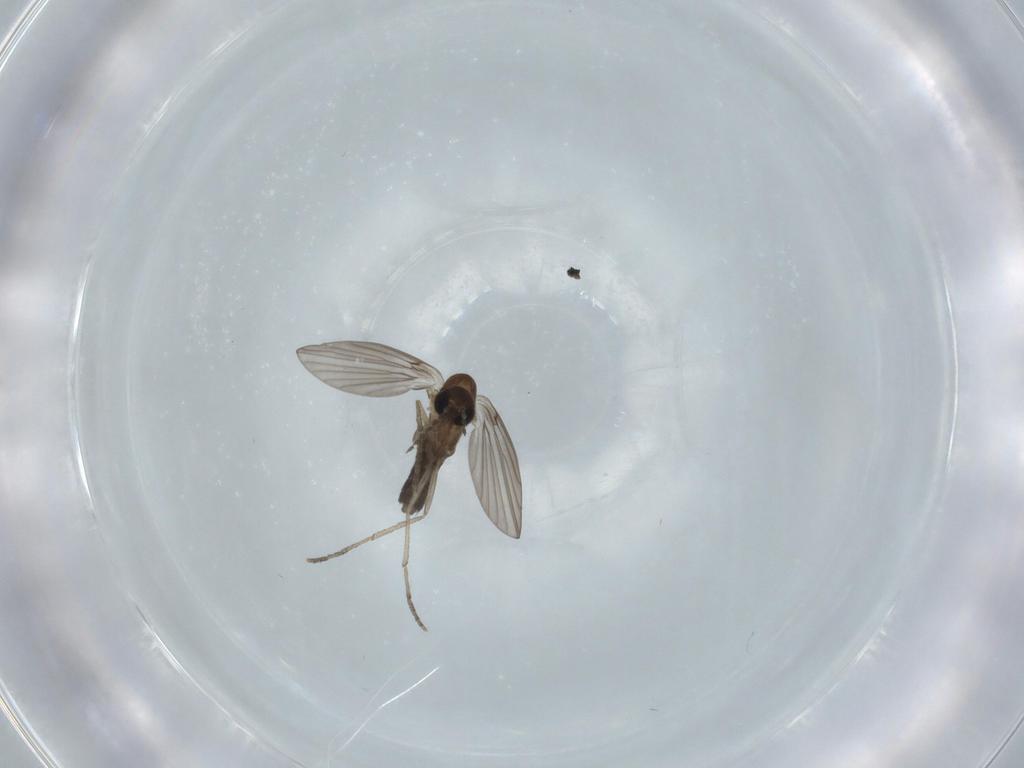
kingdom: Animalia
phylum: Arthropoda
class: Insecta
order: Diptera
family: Psychodidae
